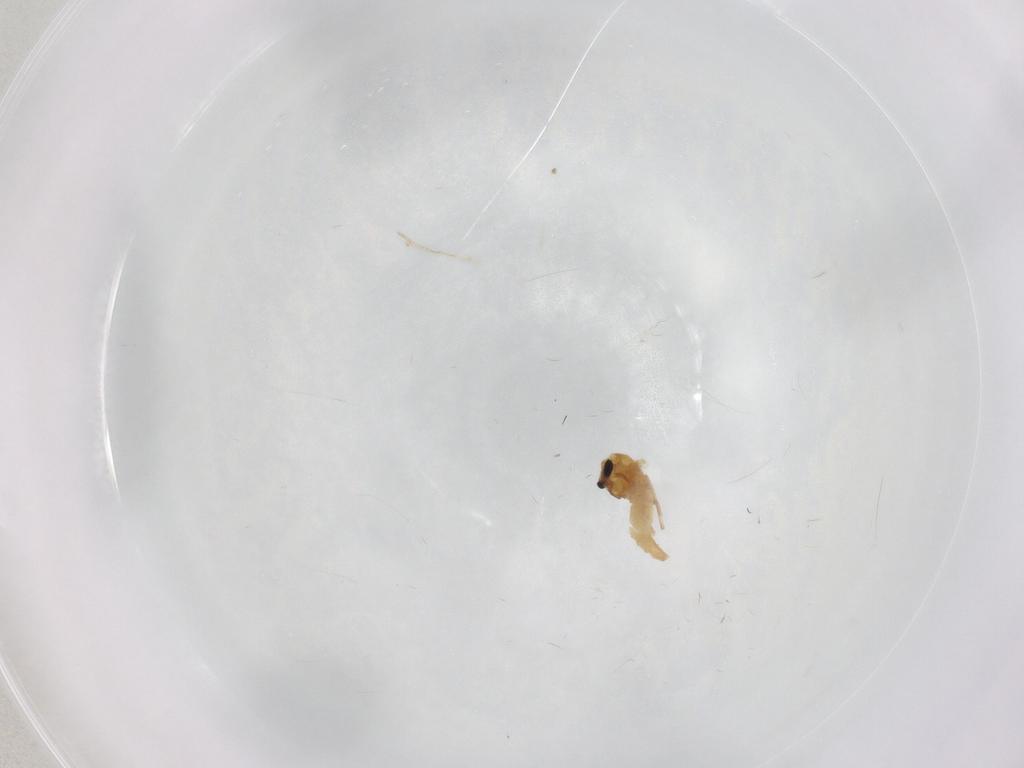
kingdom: Animalia
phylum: Arthropoda
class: Insecta
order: Diptera
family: Chironomidae
